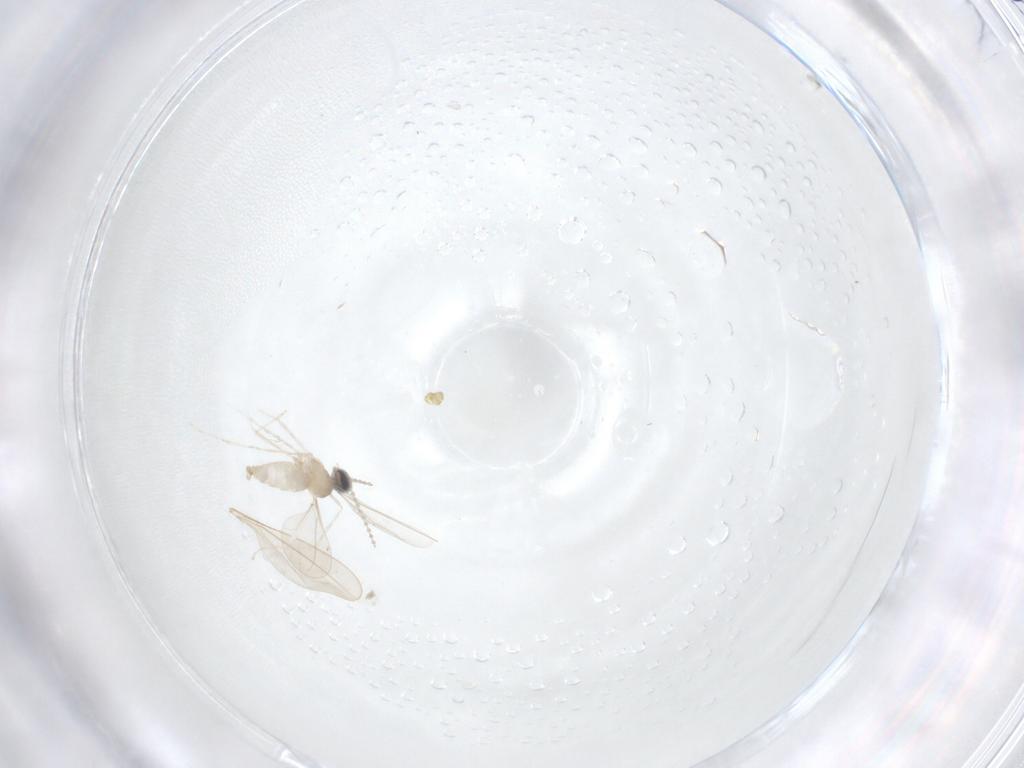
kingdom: Animalia
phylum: Arthropoda
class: Insecta
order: Diptera
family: Cecidomyiidae
